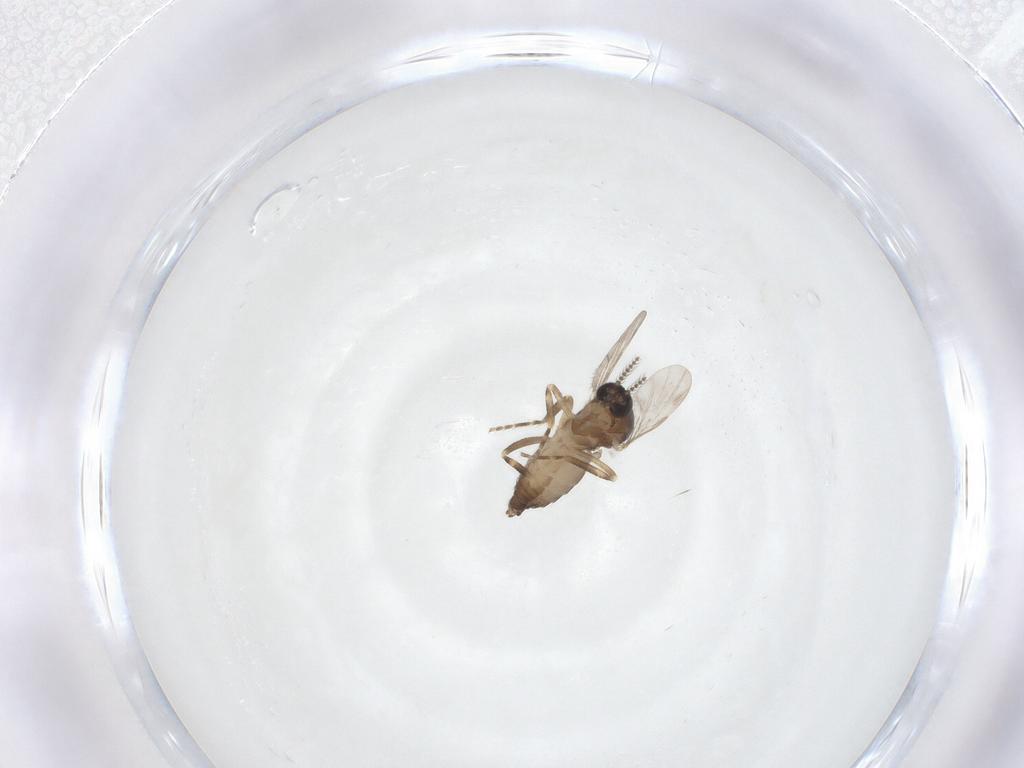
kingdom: Animalia
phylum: Arthropoda
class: Insecta
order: Diptera
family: Ceratopogonidae
